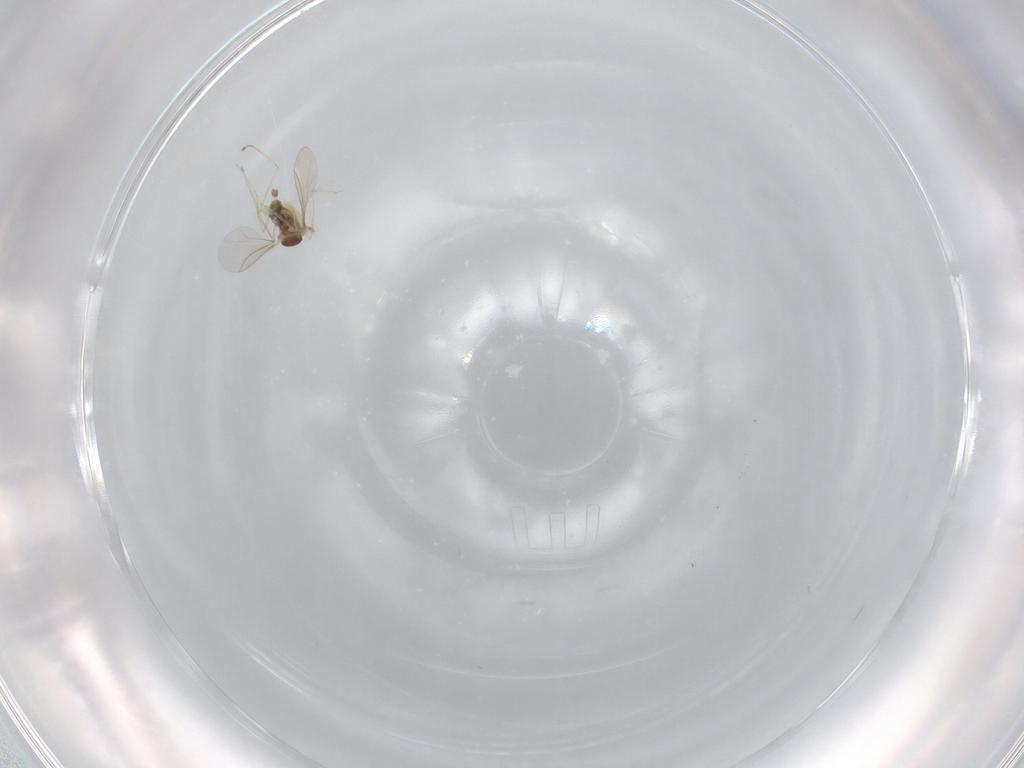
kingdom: Animalia
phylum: Arthropoda
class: Insecta
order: Diptera
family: Cecidomyiidae
